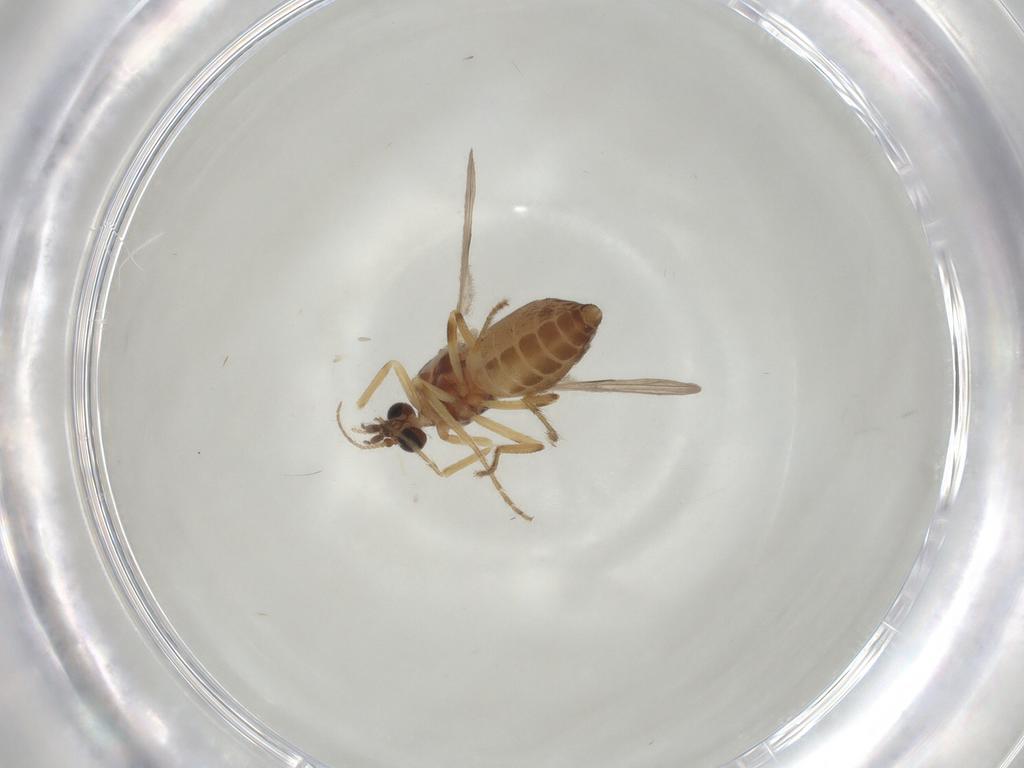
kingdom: Animalia
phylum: Arthropoda
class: Insecta
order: Diptera
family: Ceratopogonidae
